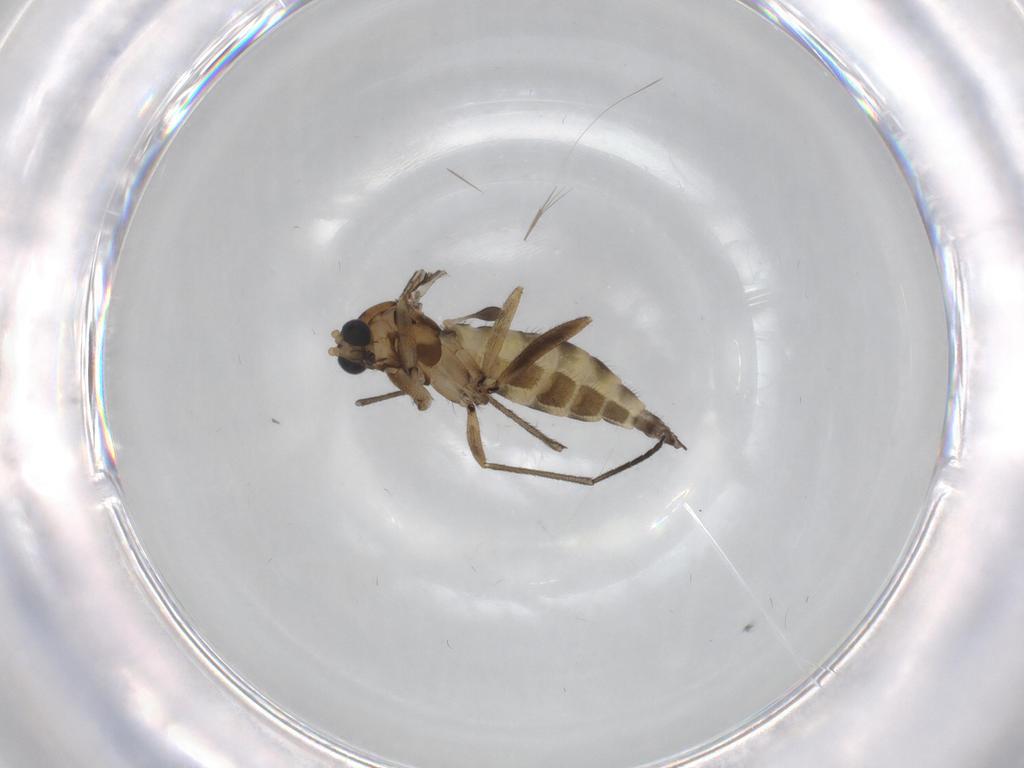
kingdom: Animalia
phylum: Arthropoda
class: Insecta
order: Diptera
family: Sciaridae
